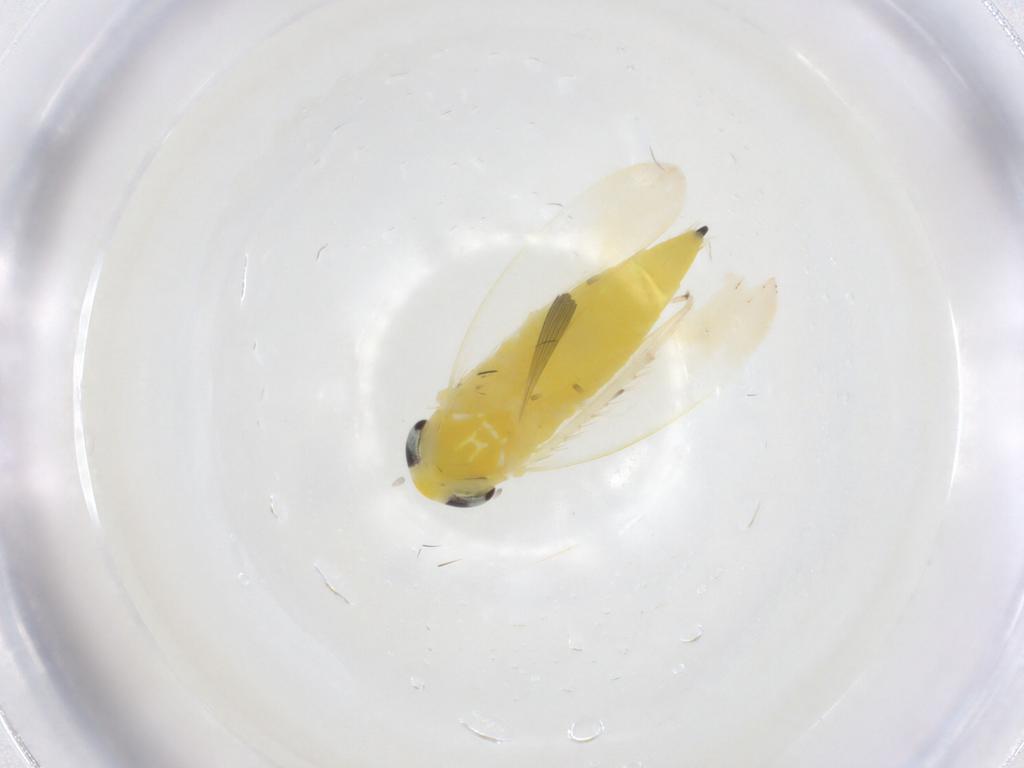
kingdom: Animalia
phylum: Arthropoda
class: Insecta
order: Hemiptera
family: Cicadellidae
